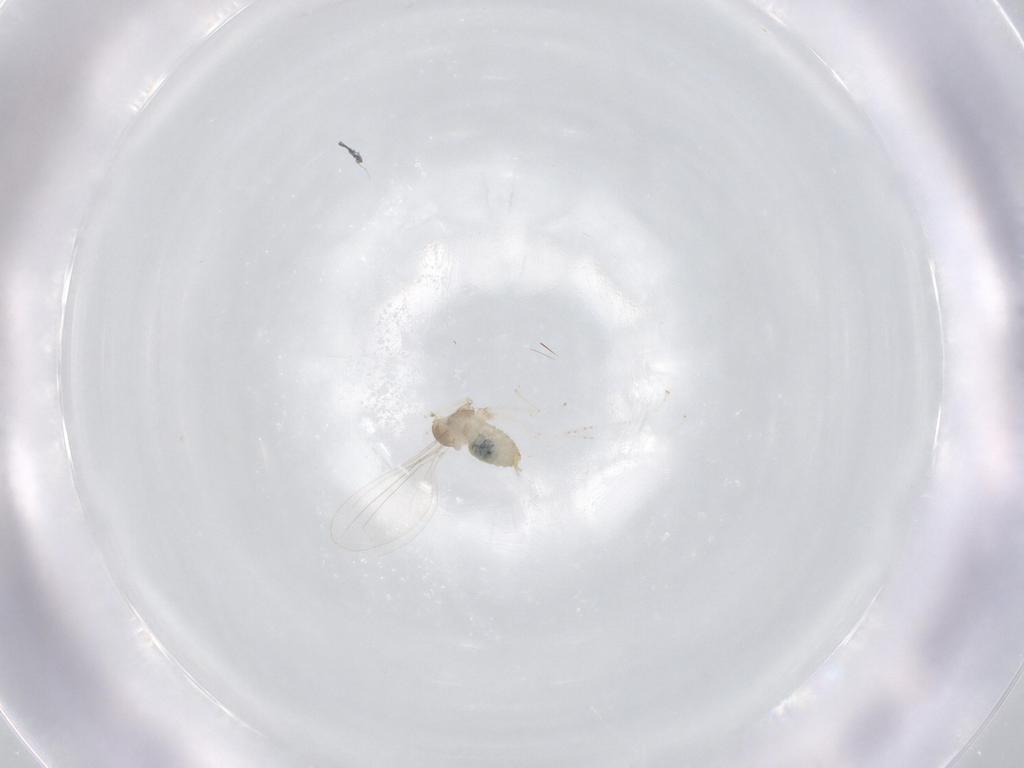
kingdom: Animalia
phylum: Arthropoda
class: Insecta
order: Diptera
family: Cecidomyiidae
